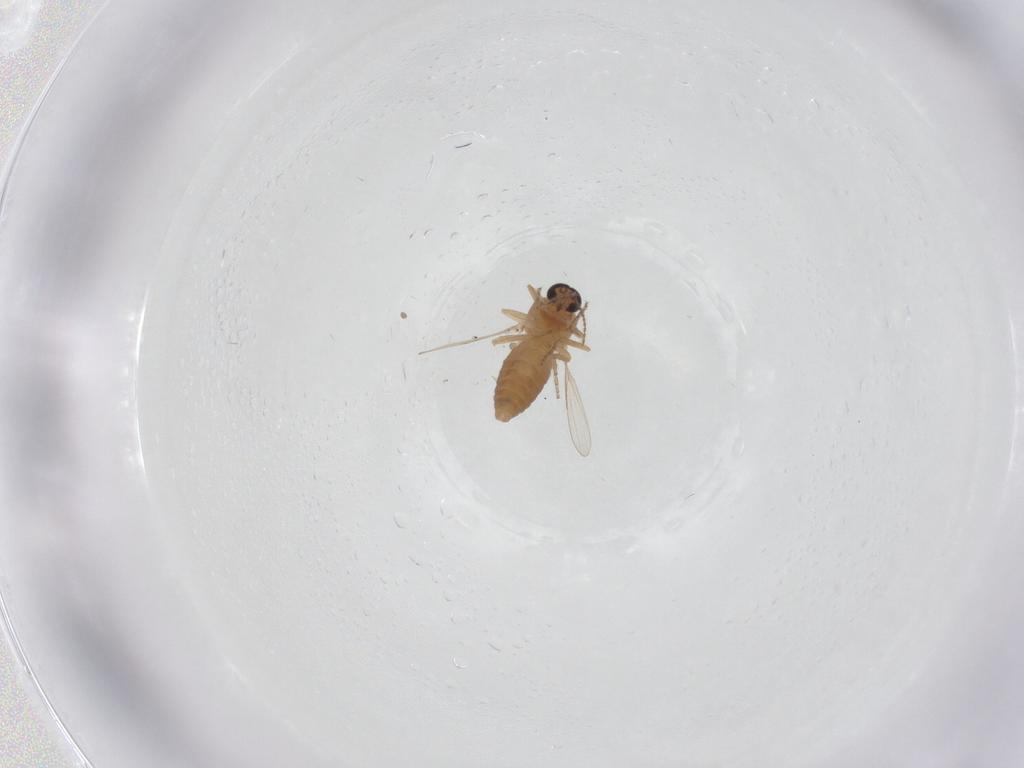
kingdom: Animalia
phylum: Arthropoda
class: Insecta
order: Diptera
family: Ceratopogonidae
